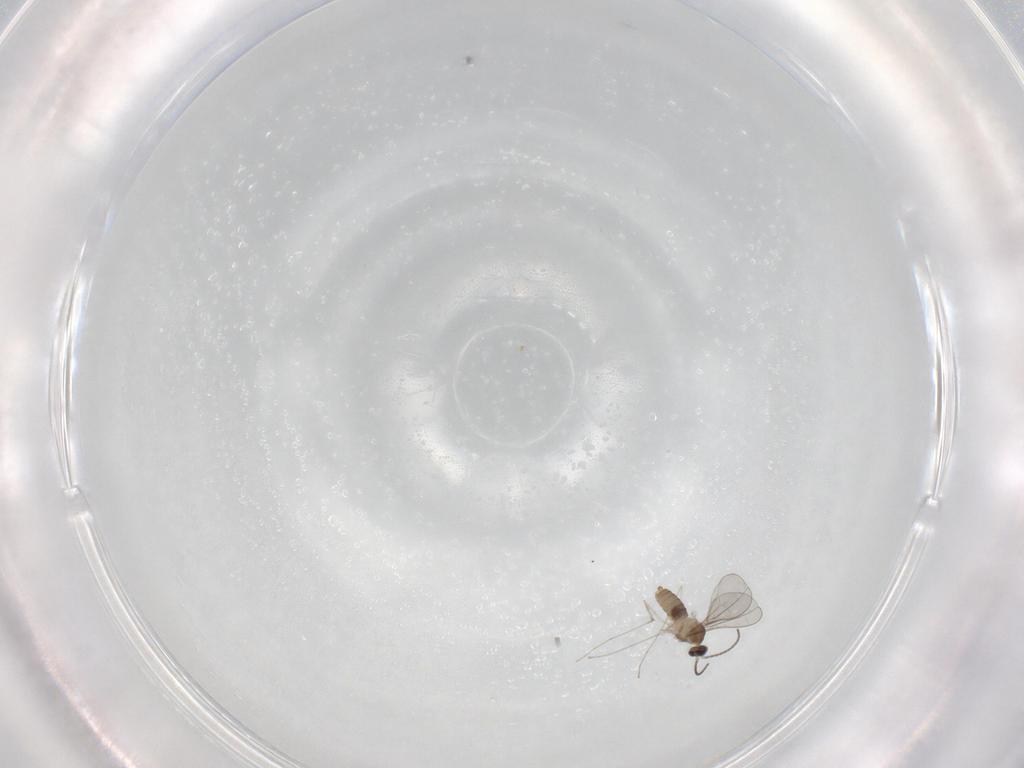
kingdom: Animalia
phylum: Arthropoda
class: Insecta
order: Diptera
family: Cecidomyiidae
